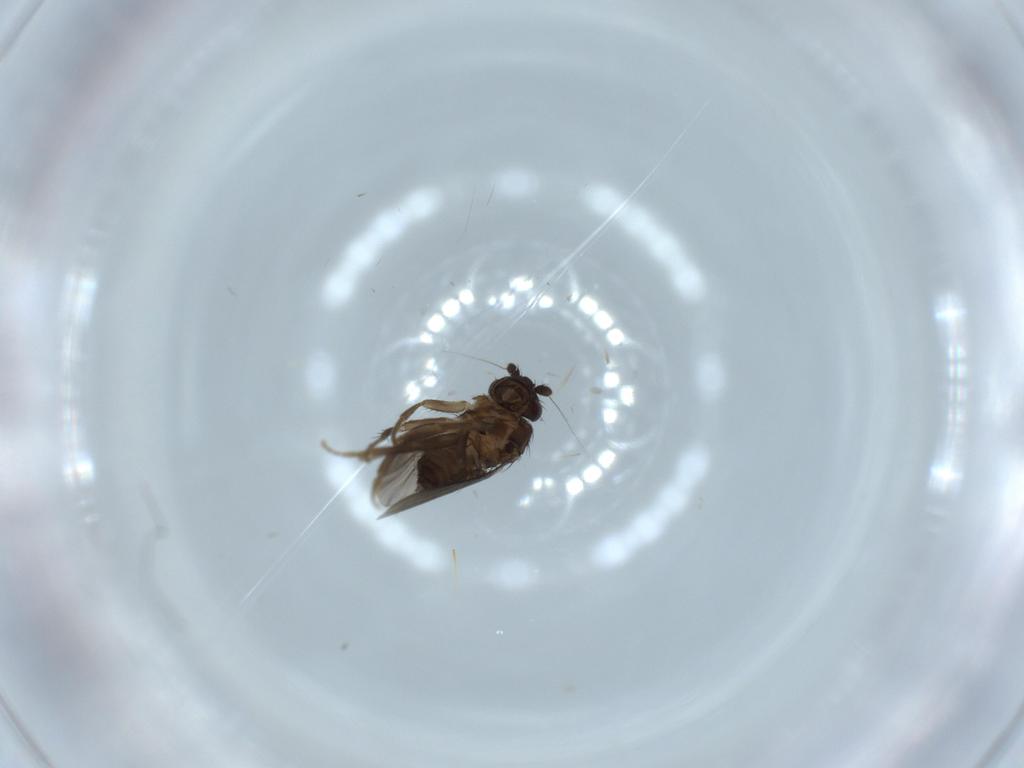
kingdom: Animalia
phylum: Arthropoda
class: Insecta
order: Diptera
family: Sphaeroceridae
